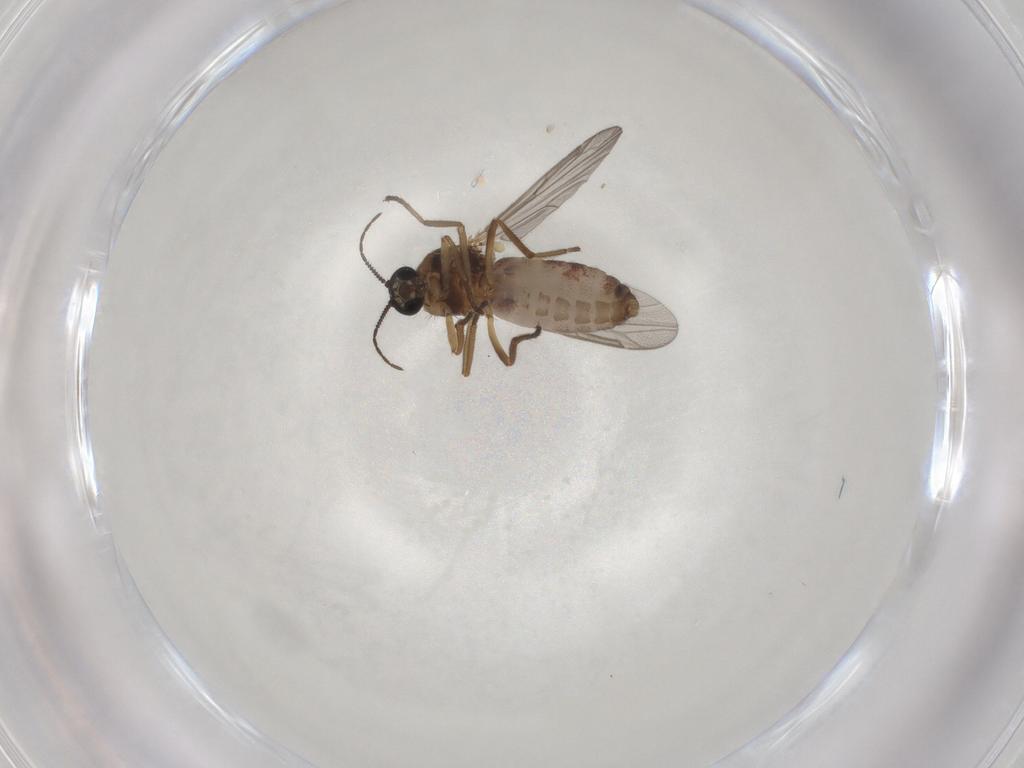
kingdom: Animalia
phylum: Arthropoda
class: Insecta
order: Diptera
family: Ceratopogonidae
